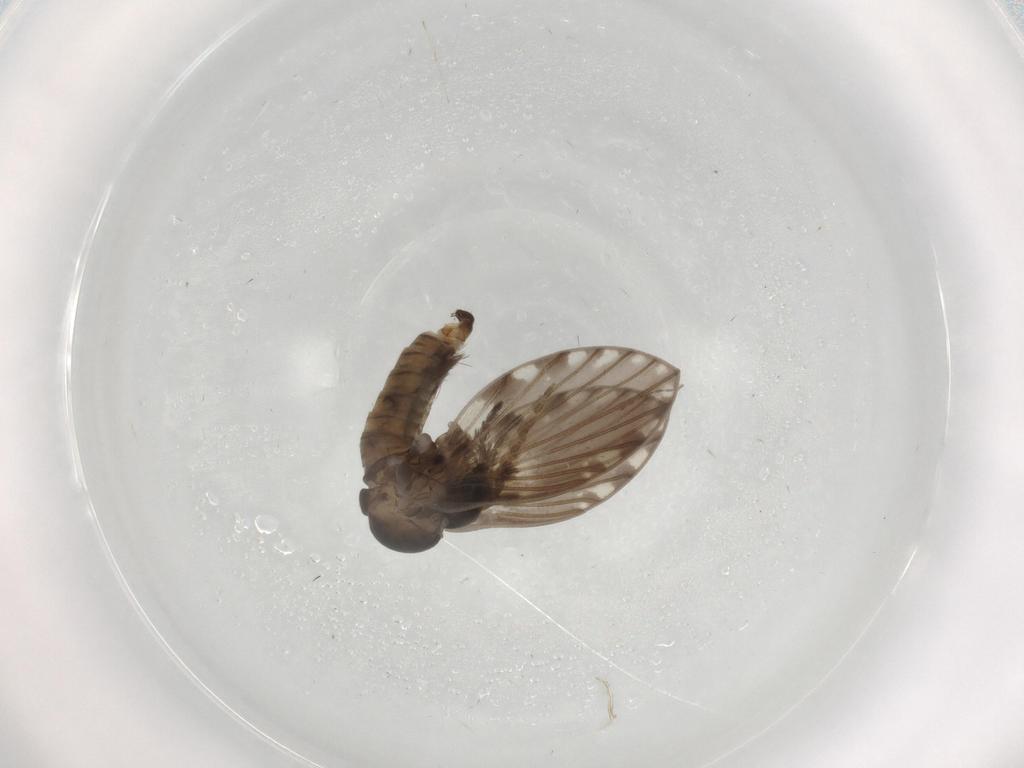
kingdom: Animalia
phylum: Arthropoda
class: Insecta
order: Diptera
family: Psychodidae
